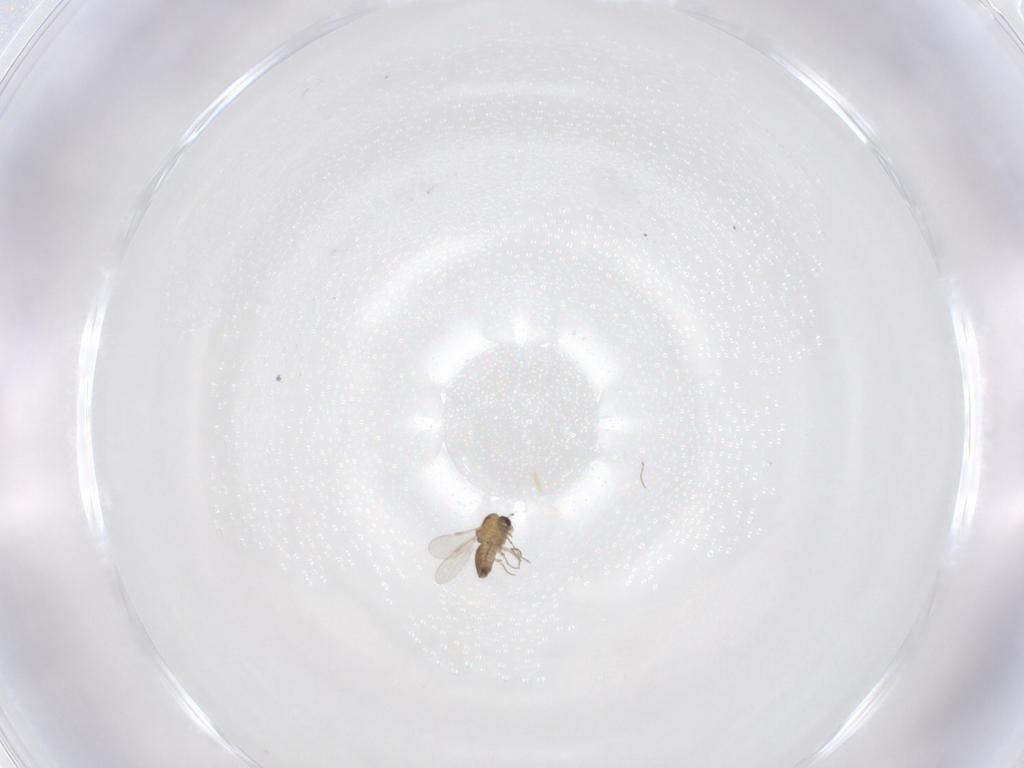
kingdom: Animalia
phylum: Arthropoda
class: Insecta
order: Diptera
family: Chironomidae
